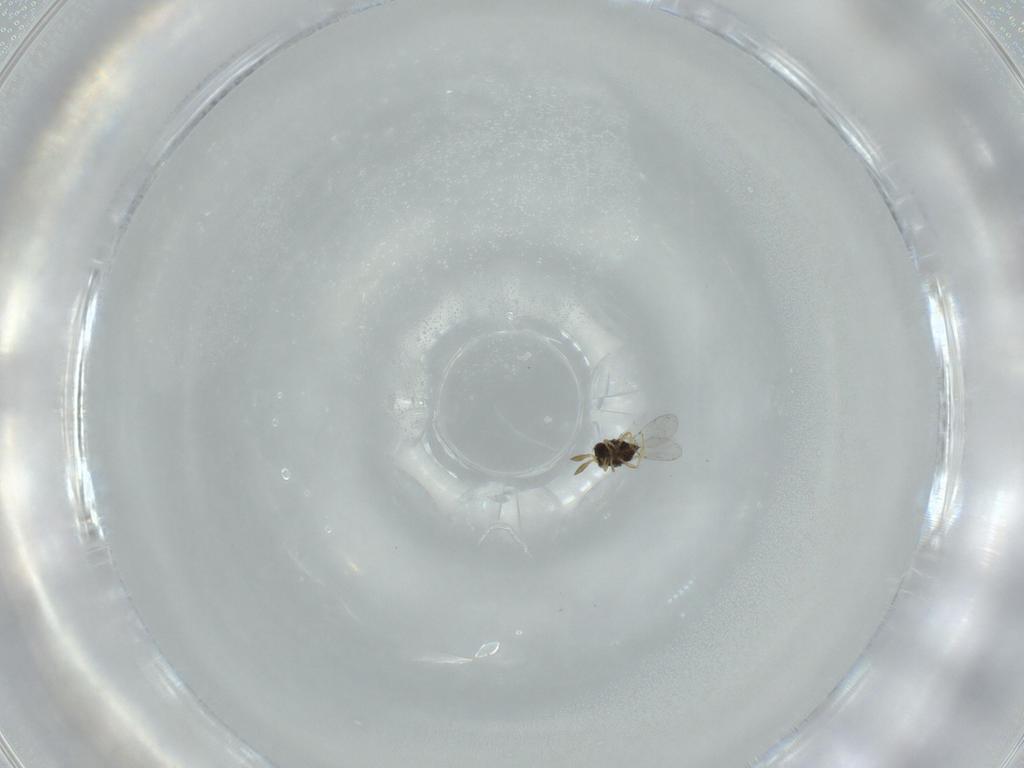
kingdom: Animalia
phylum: Arthropoda
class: Insecta
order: Hymenoptera
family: Encyrtidae
